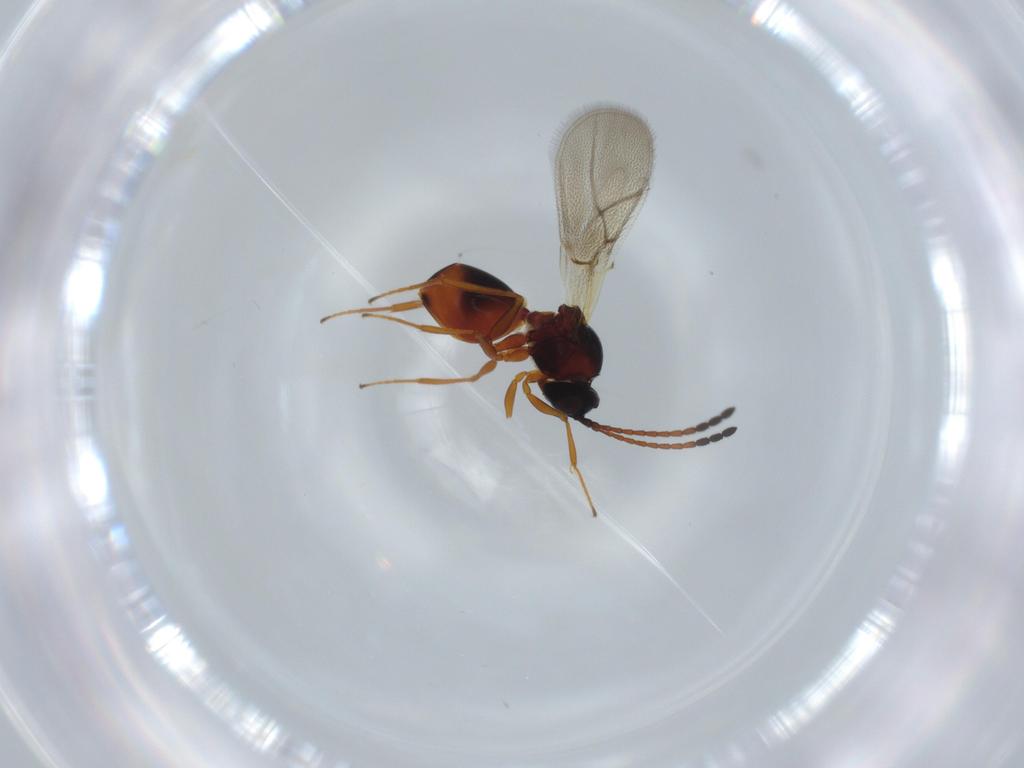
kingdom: Animalia
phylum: Arthropoda
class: Insecta
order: Hymenoptera
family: Figitidae
